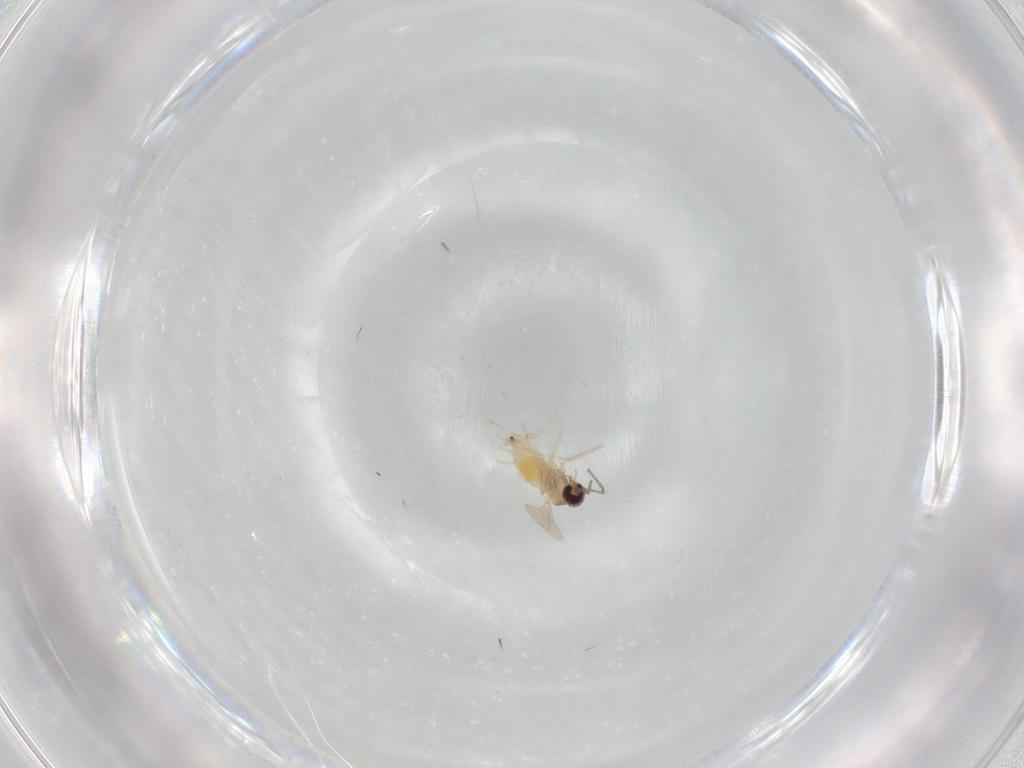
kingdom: Animalia
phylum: Arthropoda
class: Insecta
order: Diptera
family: Cecidomyiidae
